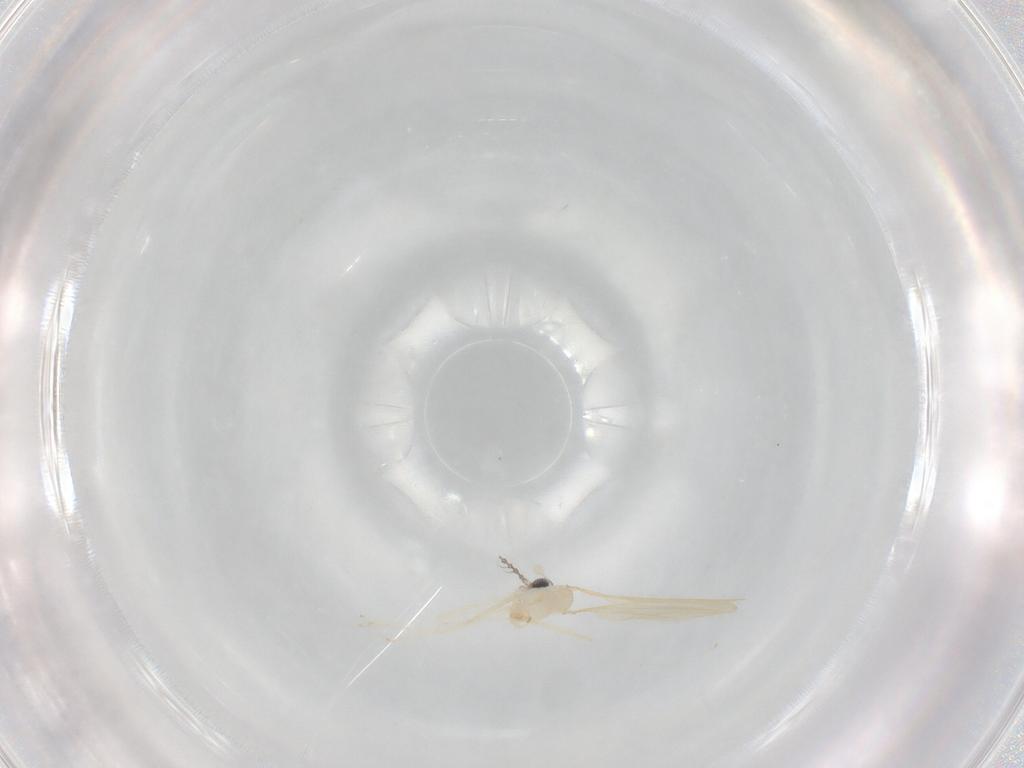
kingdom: Animalia
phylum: Arthropoda
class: Insecta
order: Diptera
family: Cecidomyiidae
